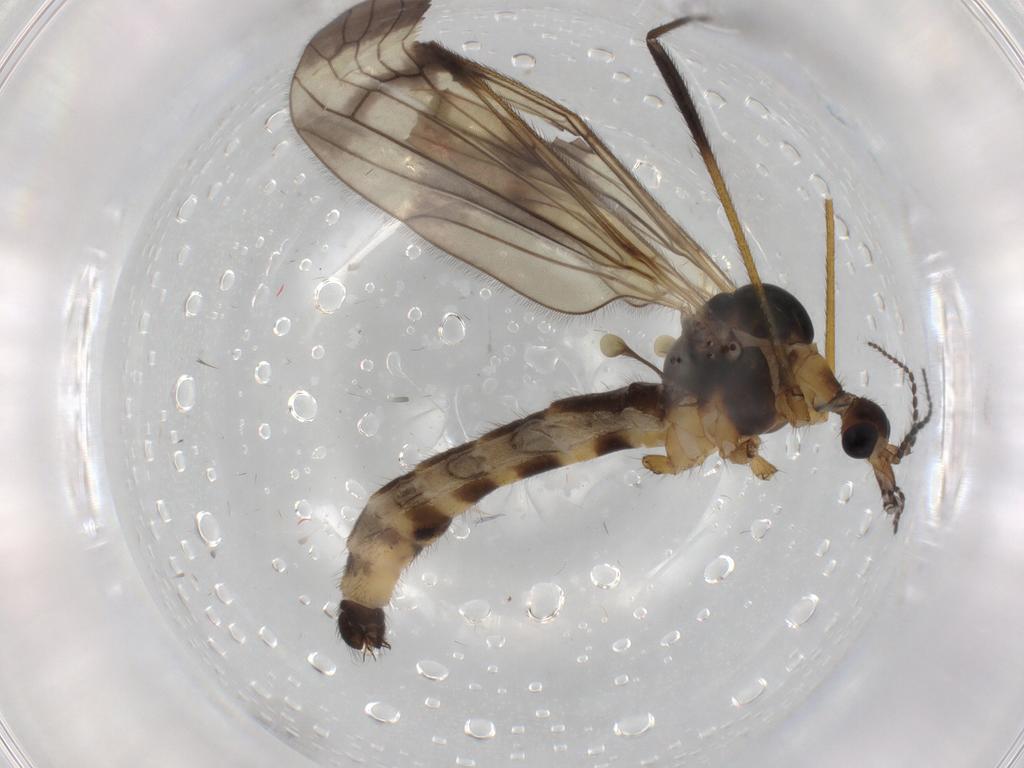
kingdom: Animalia
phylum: Arthropoda
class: Insecta
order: Diptera
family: Limoniidae
